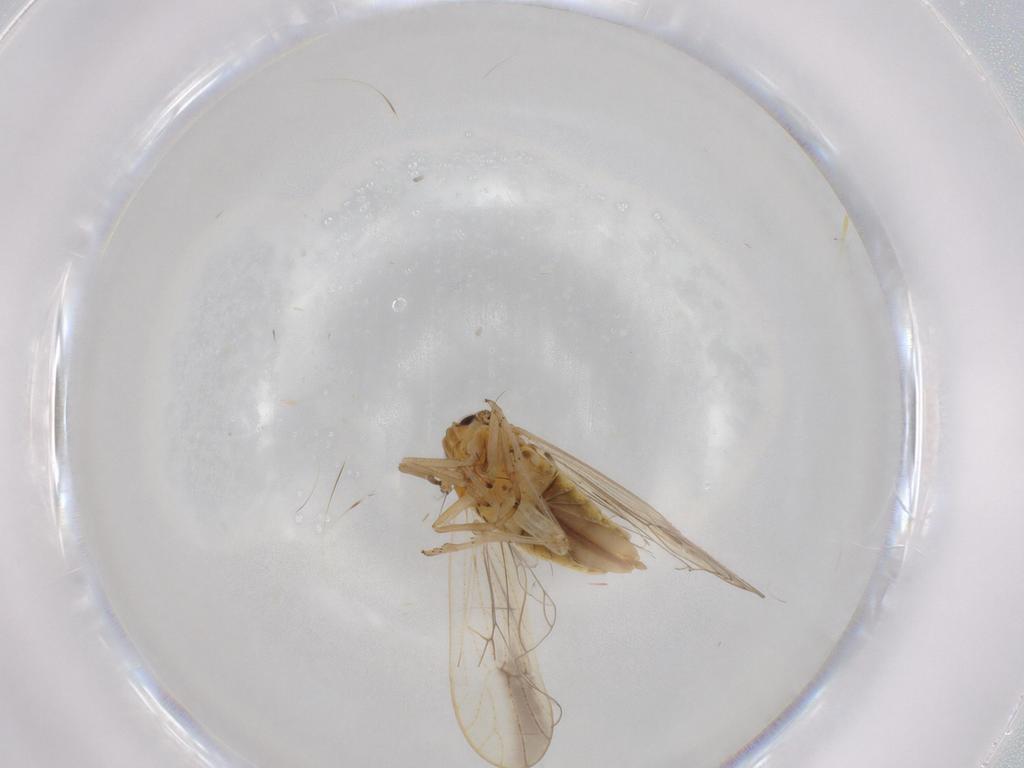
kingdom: Animalia
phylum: Arthropoda
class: Insecta
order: Hemiptera
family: Delphacidae
